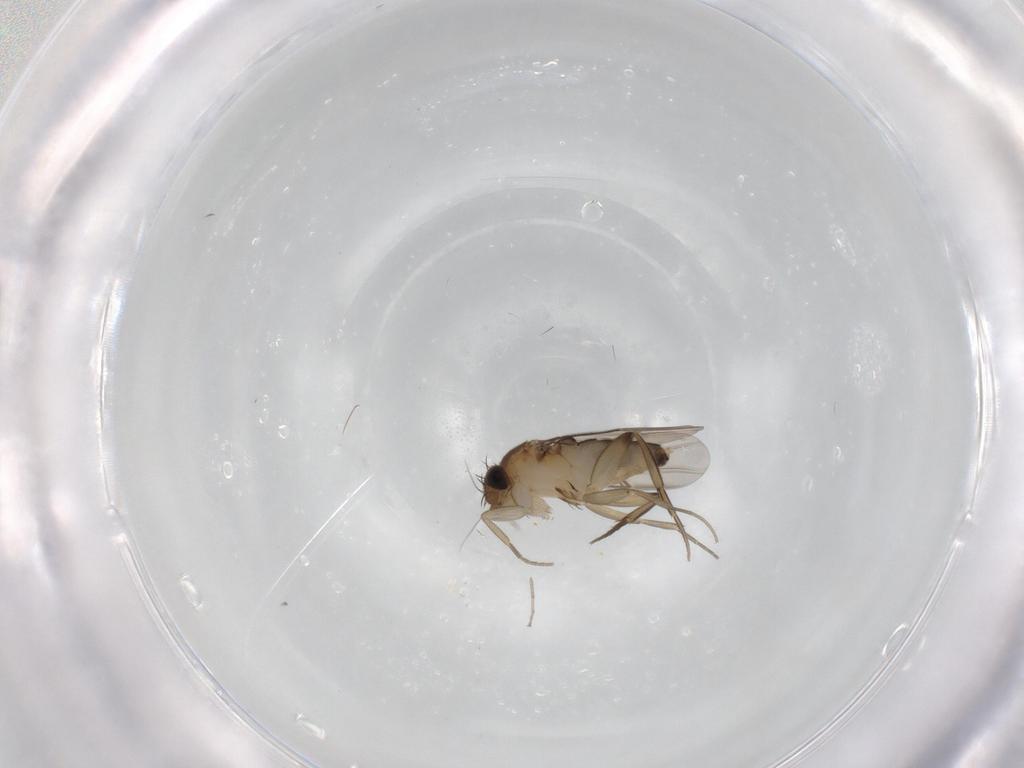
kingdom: Animalia
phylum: Arthropoda
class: Insecta
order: Diptera
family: Phoridae
